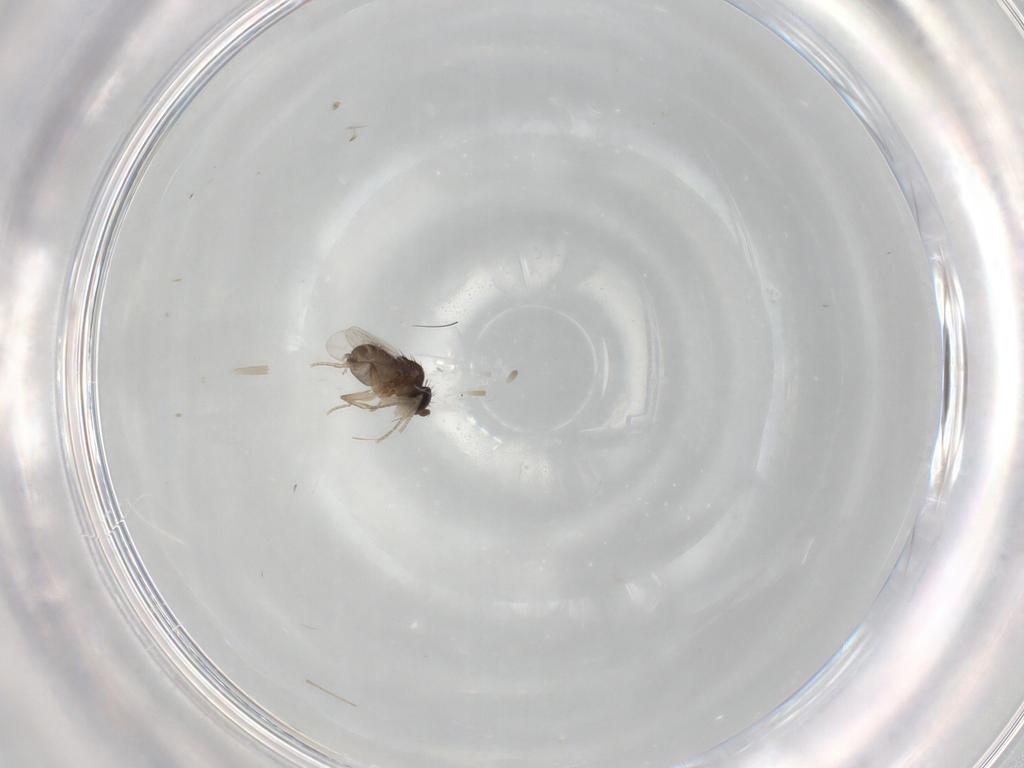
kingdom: Animalia
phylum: Arthropoda
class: Insecta
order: Diptera
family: Phoridae
